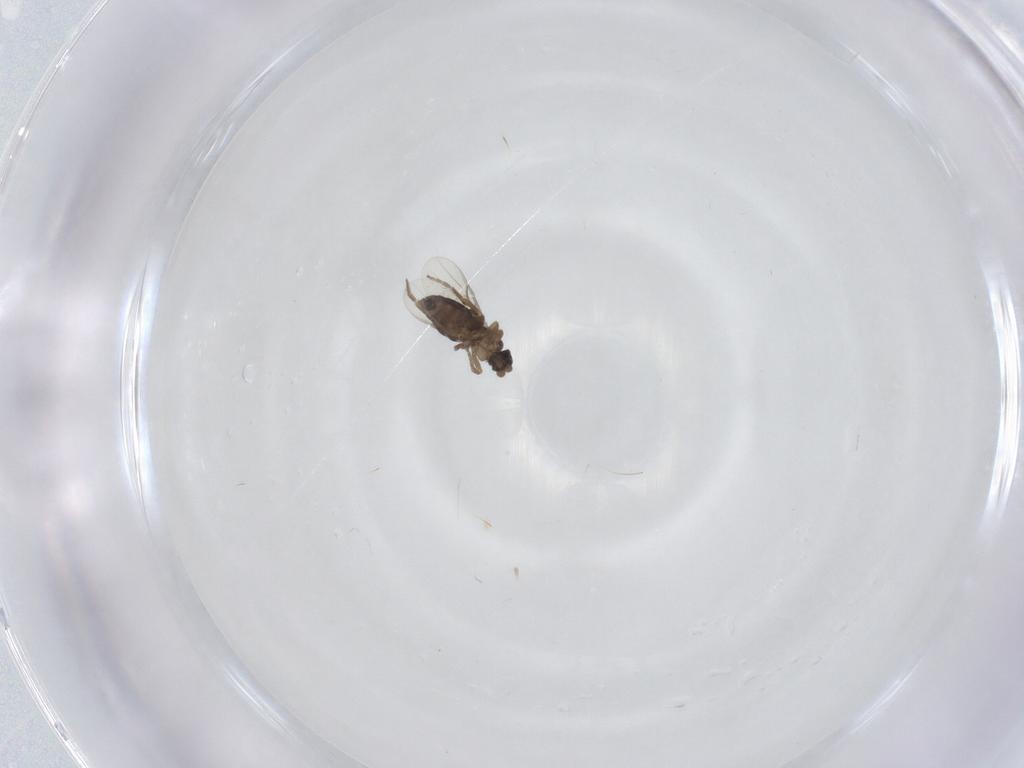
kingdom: Animalia
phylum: Arthropoda
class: Insecta
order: Diptera
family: Phoridae
